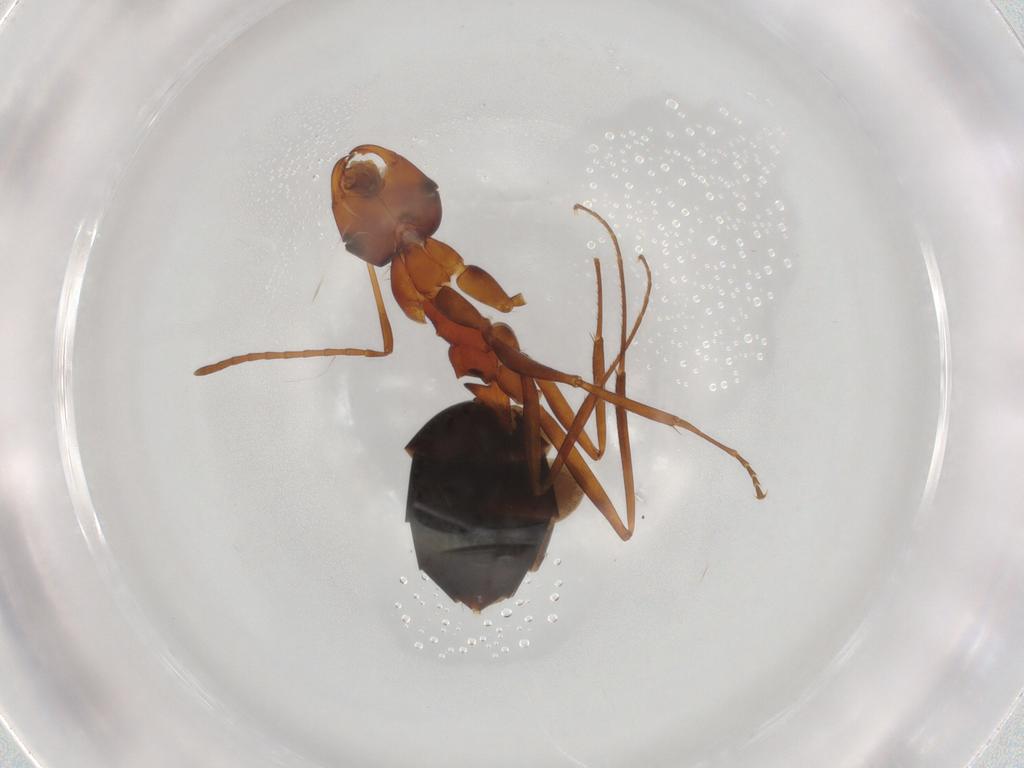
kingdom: Animalia
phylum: Arthropoda
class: Insecta
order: Hymenoptera
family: Formicidae
